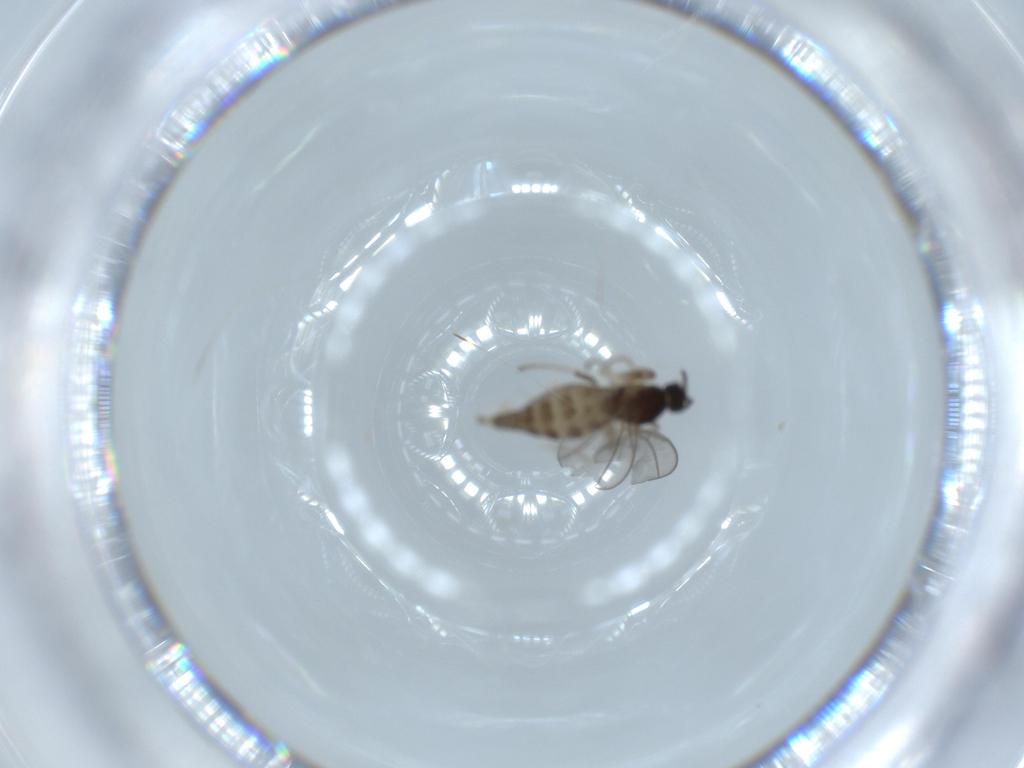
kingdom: Animalia
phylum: Arthropoda
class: Insecta
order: Diptera
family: Cecidomyiidae
